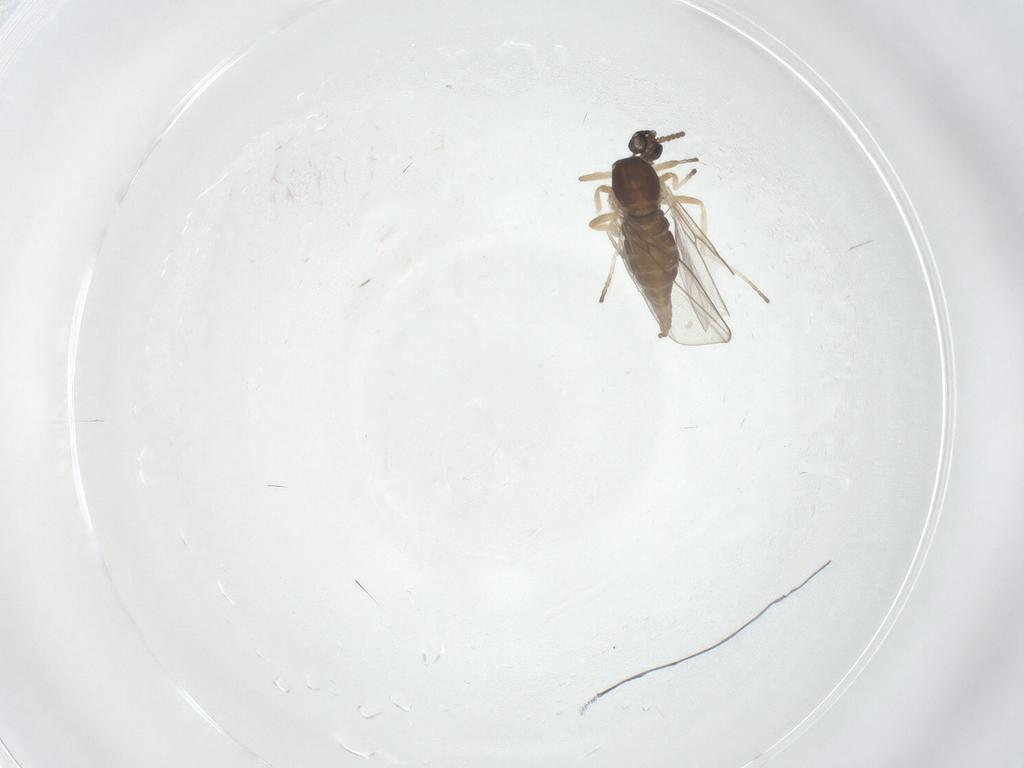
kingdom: Animalia
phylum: Arthropoda
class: Insecta
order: Diptera
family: Cecidomyiidae
